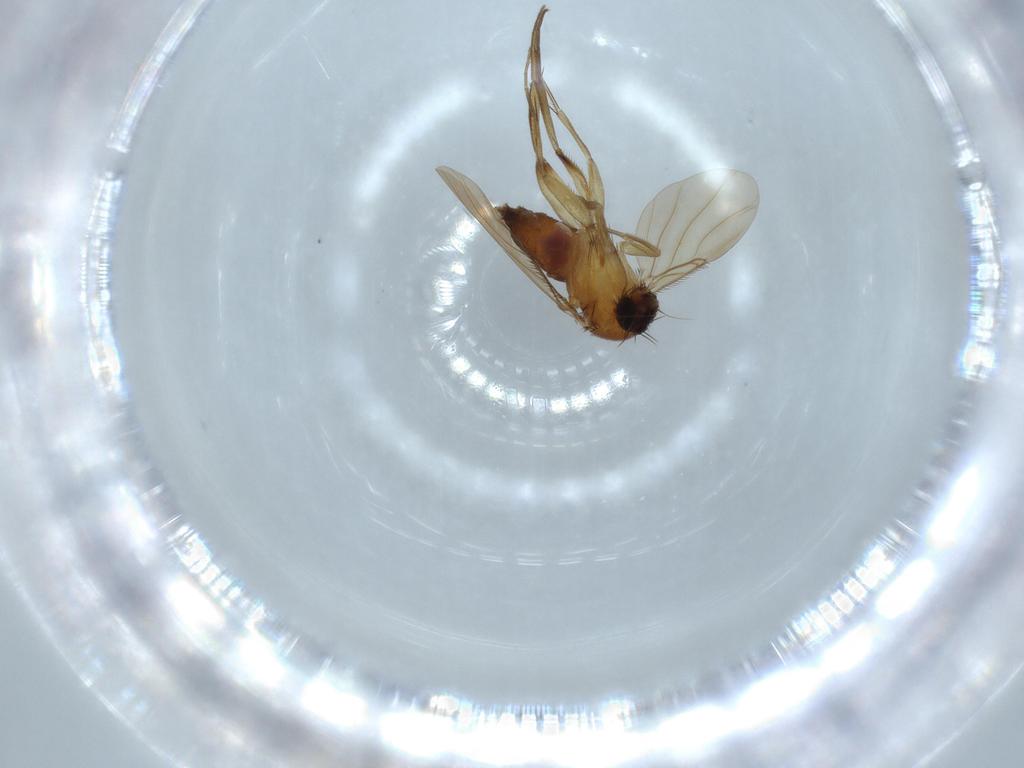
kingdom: Animalia
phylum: Arthropoda
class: Insecta
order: Diptera
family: Phoridae
